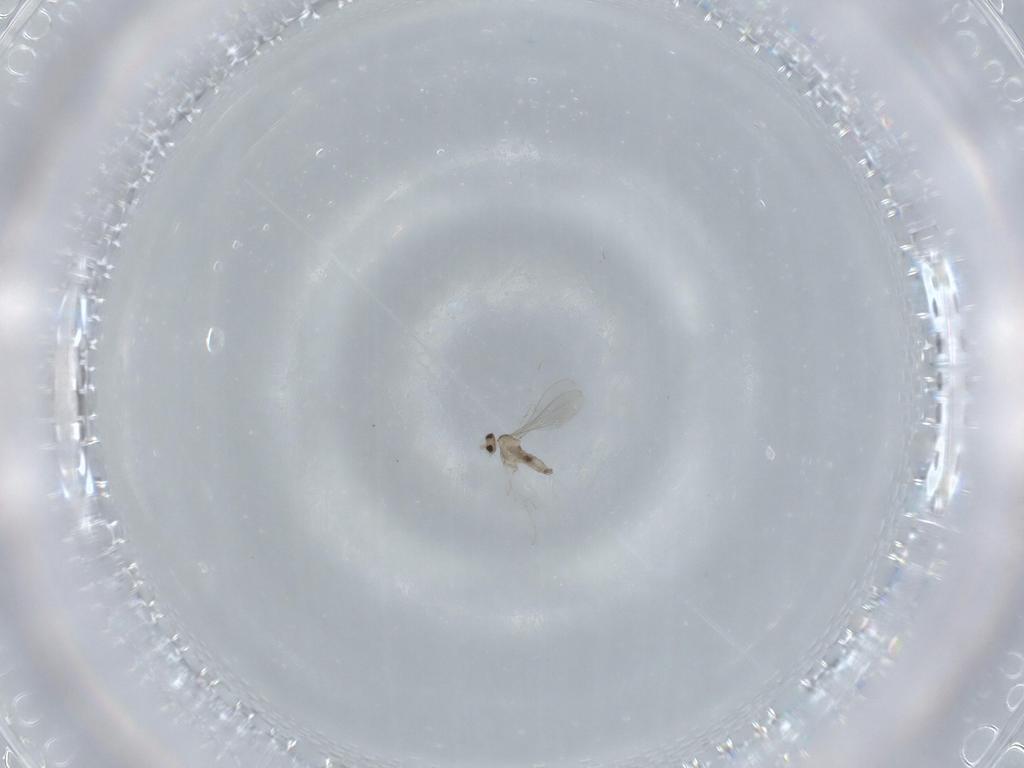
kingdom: Animalia
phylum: Arthropoda
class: Insecta
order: Diptera
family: Cecidomyiidae
